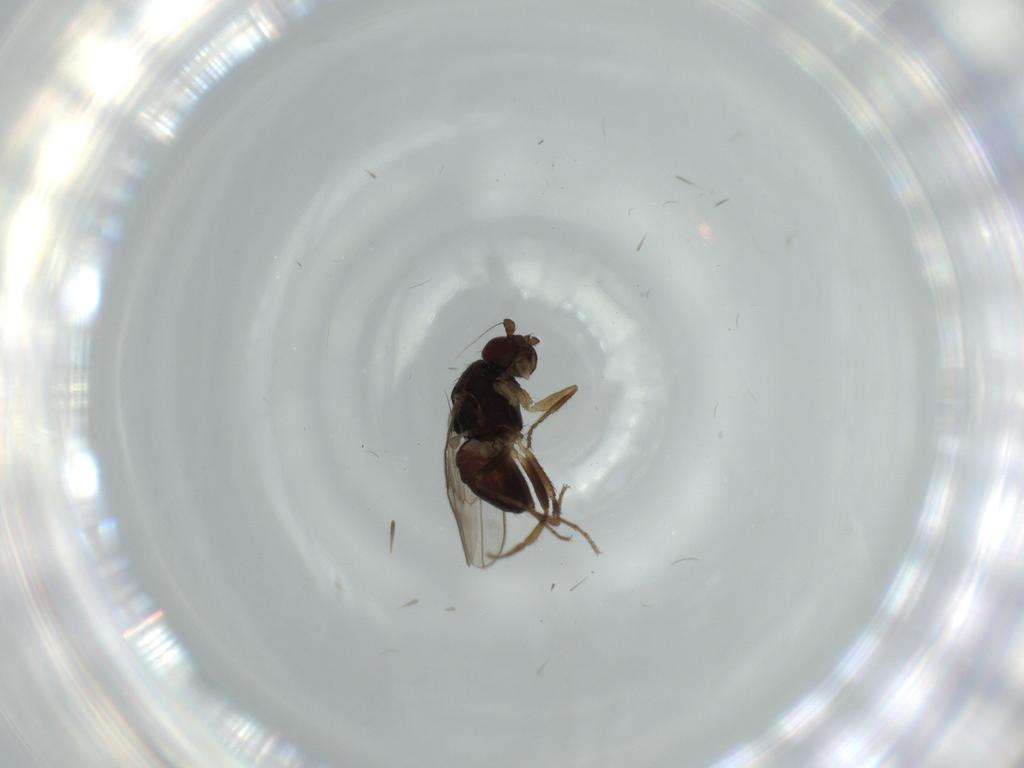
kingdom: Animalia
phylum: Arthropoda
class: Insecta
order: Diptera
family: Sphaeroceridae
